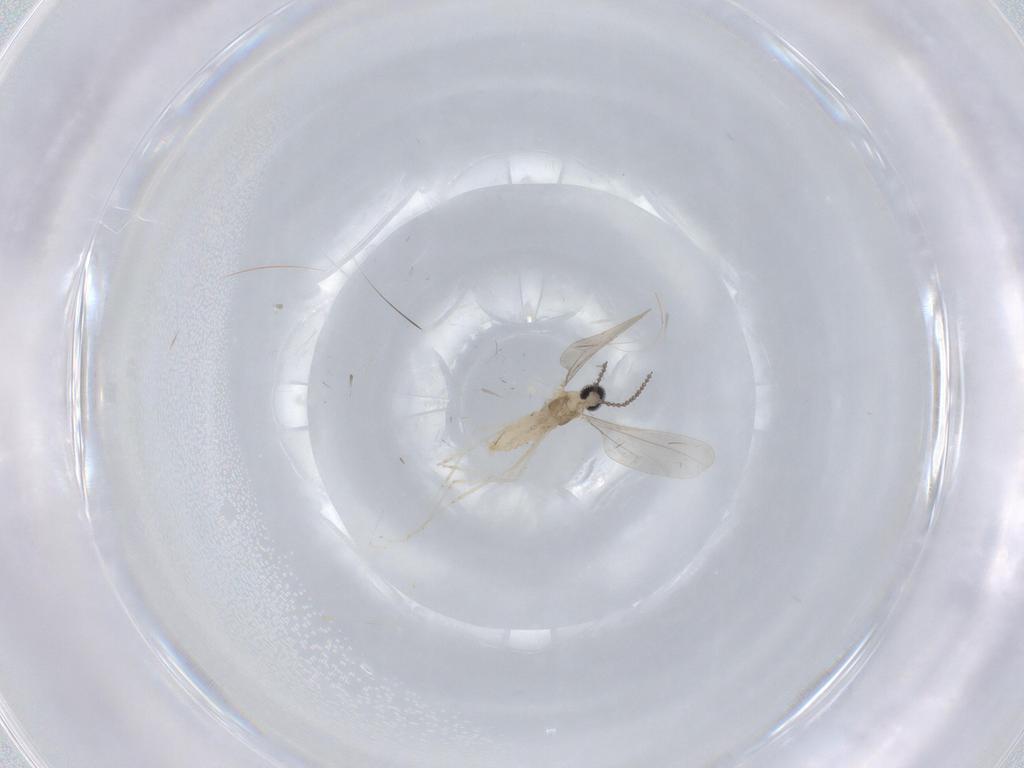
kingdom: Animalia
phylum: Arthropoda
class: Insecta
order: Diptera
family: Cecidomyiidae
